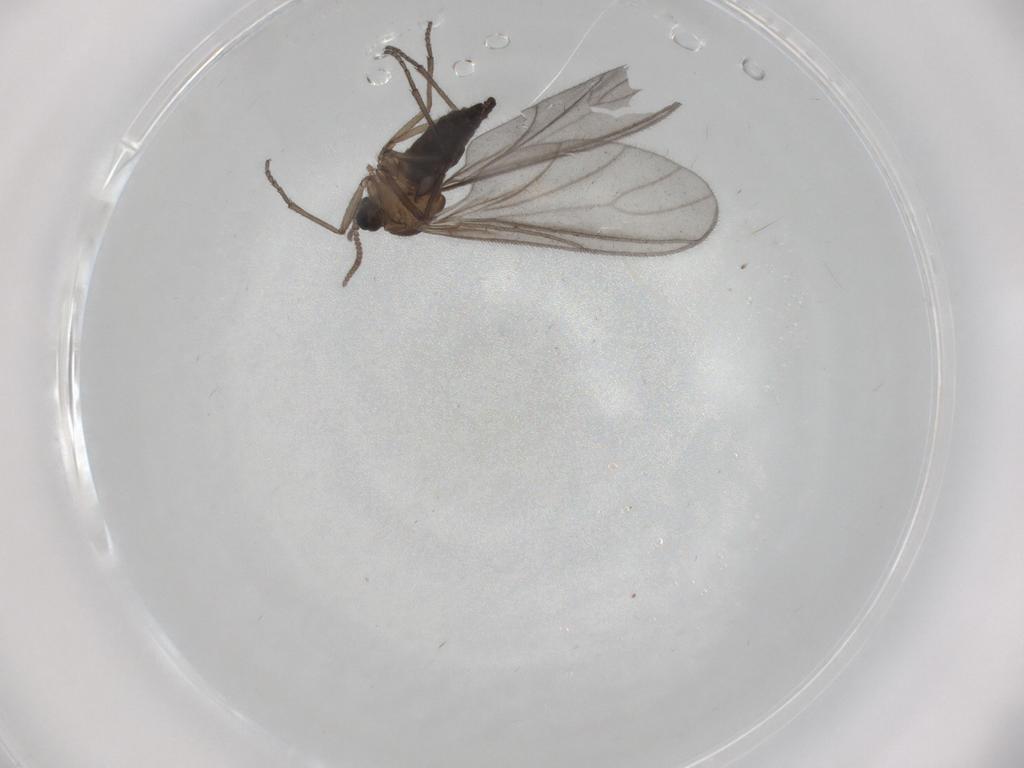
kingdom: Animalia
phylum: Arthropoda
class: Insecta
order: Diptera
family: Sciaridae
